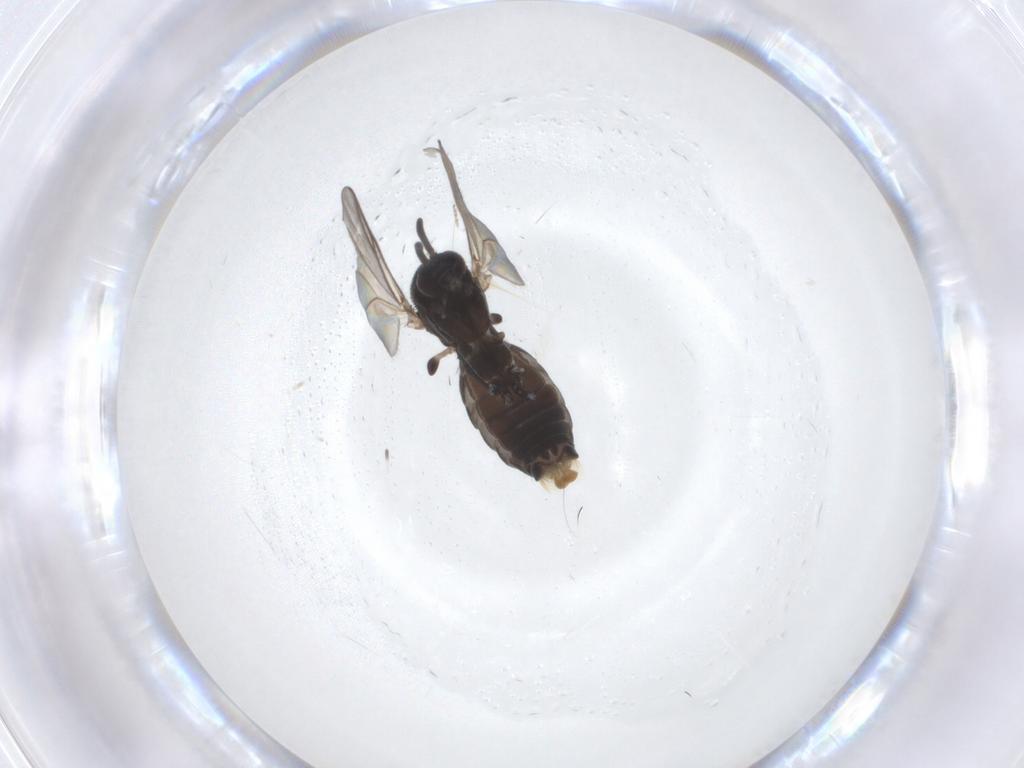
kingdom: Animalia
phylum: Arthropoda
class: Insecta
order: Diptera
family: Mycetophilidae
